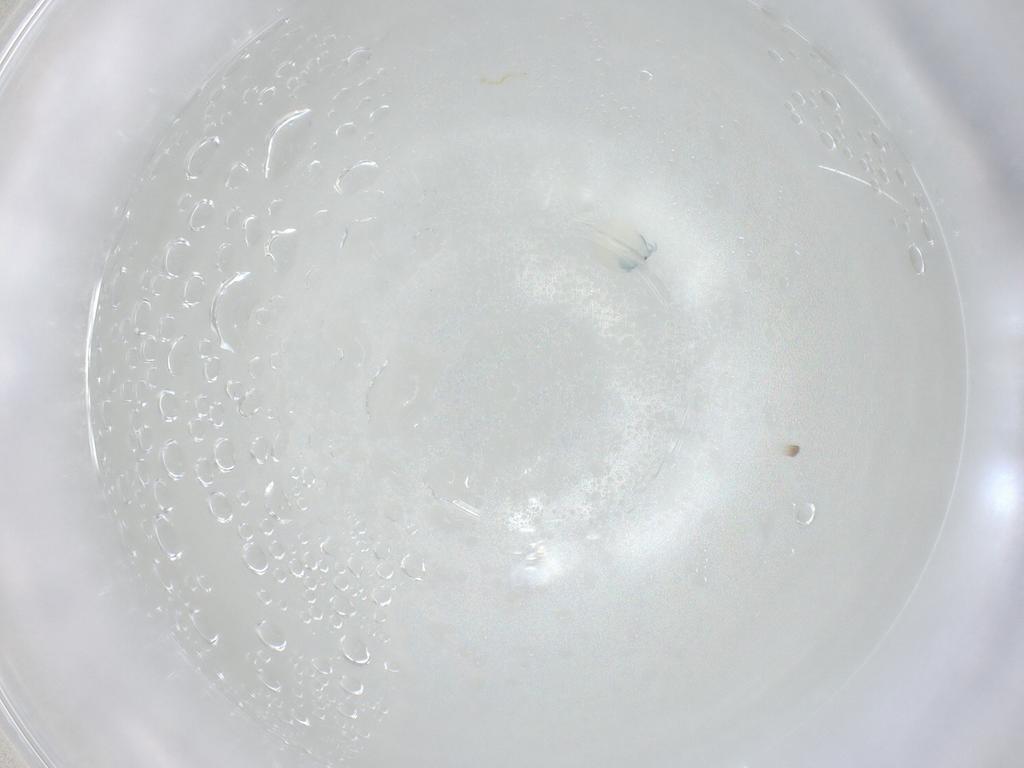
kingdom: Animalia
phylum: Arthropoda
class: Arachnida
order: Trombidiformes
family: Arrenuridae
